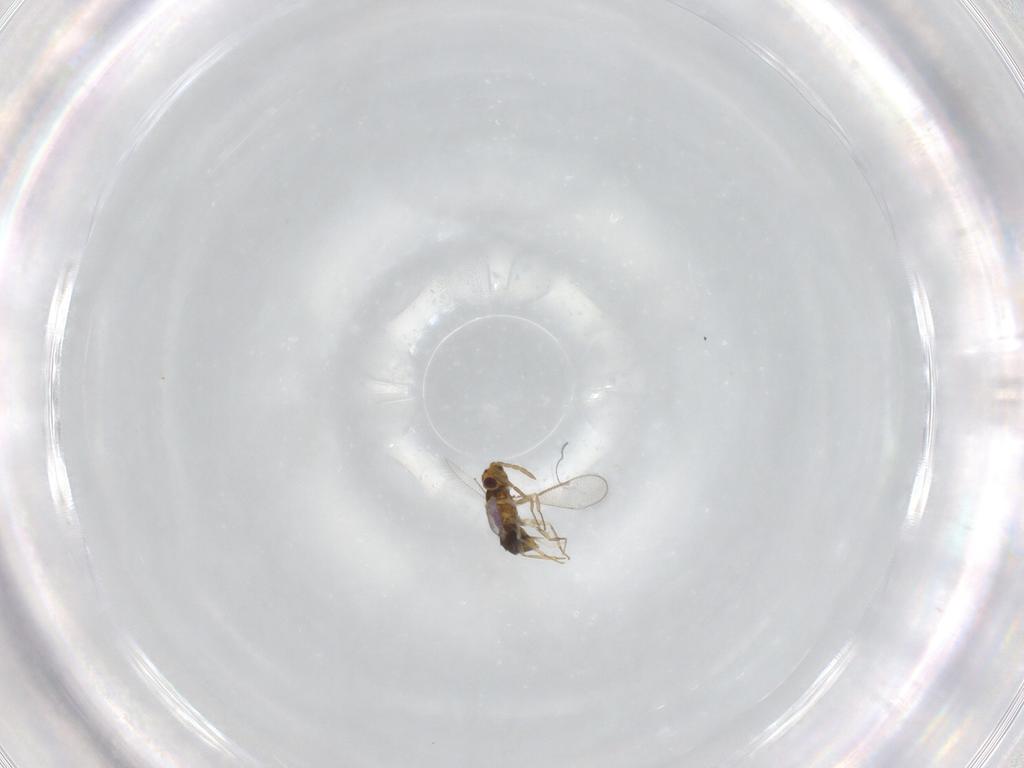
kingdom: Animalia
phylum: Arthropoda
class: Insecta
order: Hymenoptera
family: Aphelinidae
